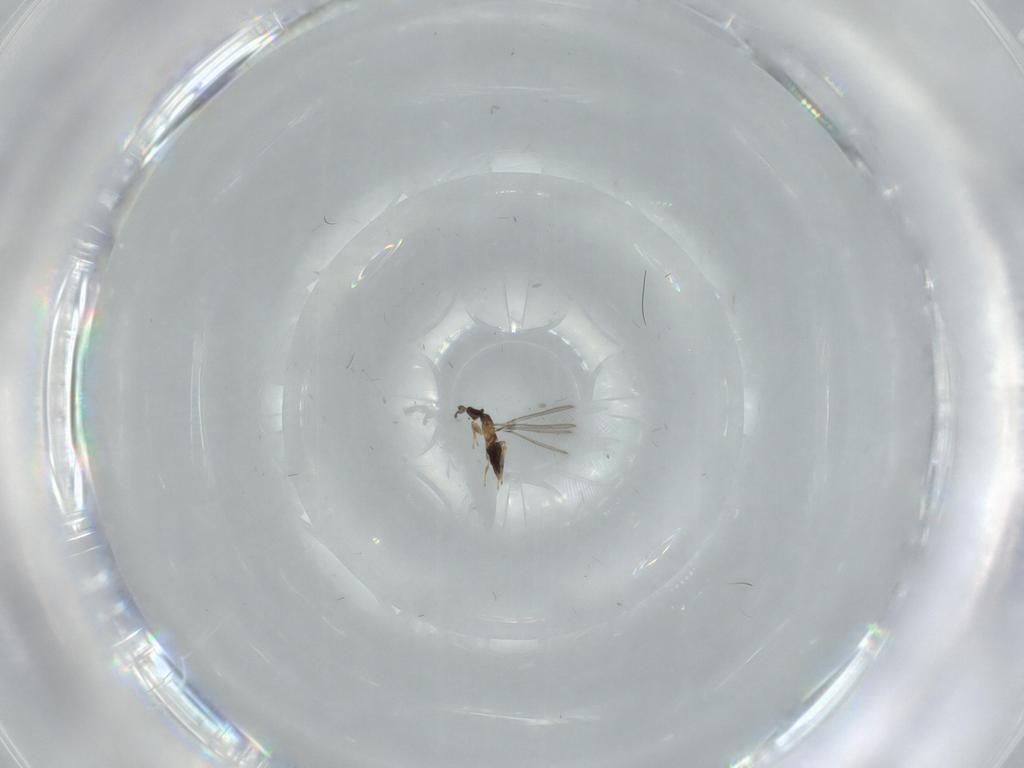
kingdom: Animalia
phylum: Arthropoda
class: Insecta
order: Hymenoptera
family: Mymaridae
